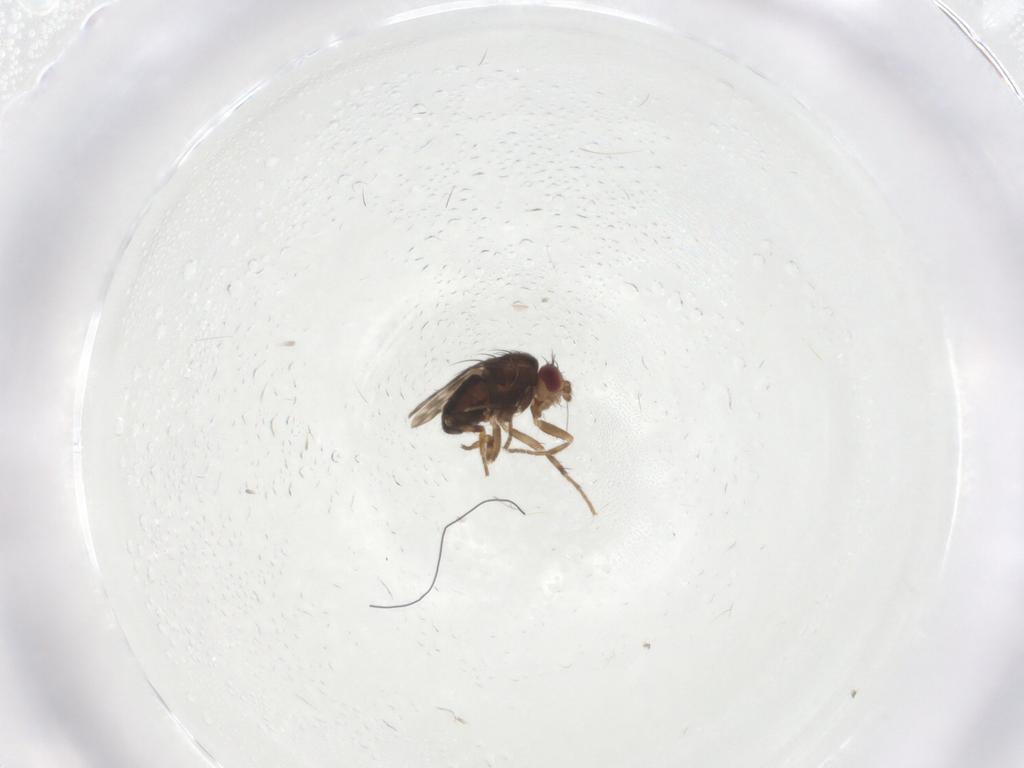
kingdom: Animalia
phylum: Arthropoda
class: Insecta
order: Diptera
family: Sphaeroceridae
